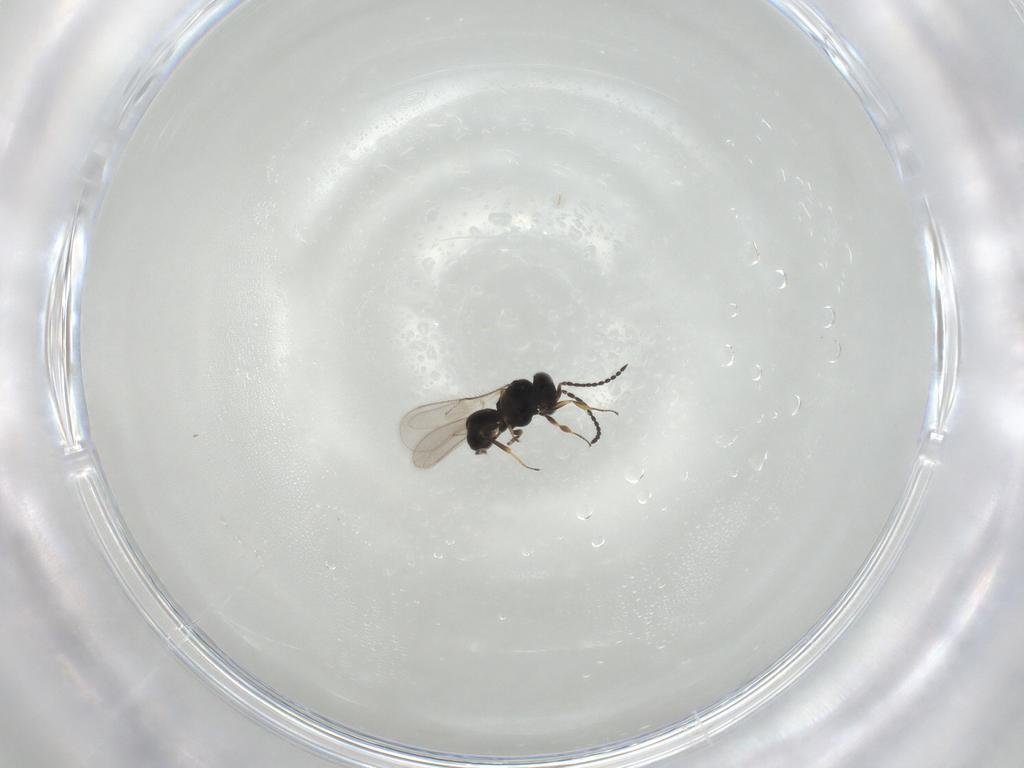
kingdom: Animalia
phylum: Arthropoda
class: Insecta
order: Hymenoptera
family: Scelionidae
